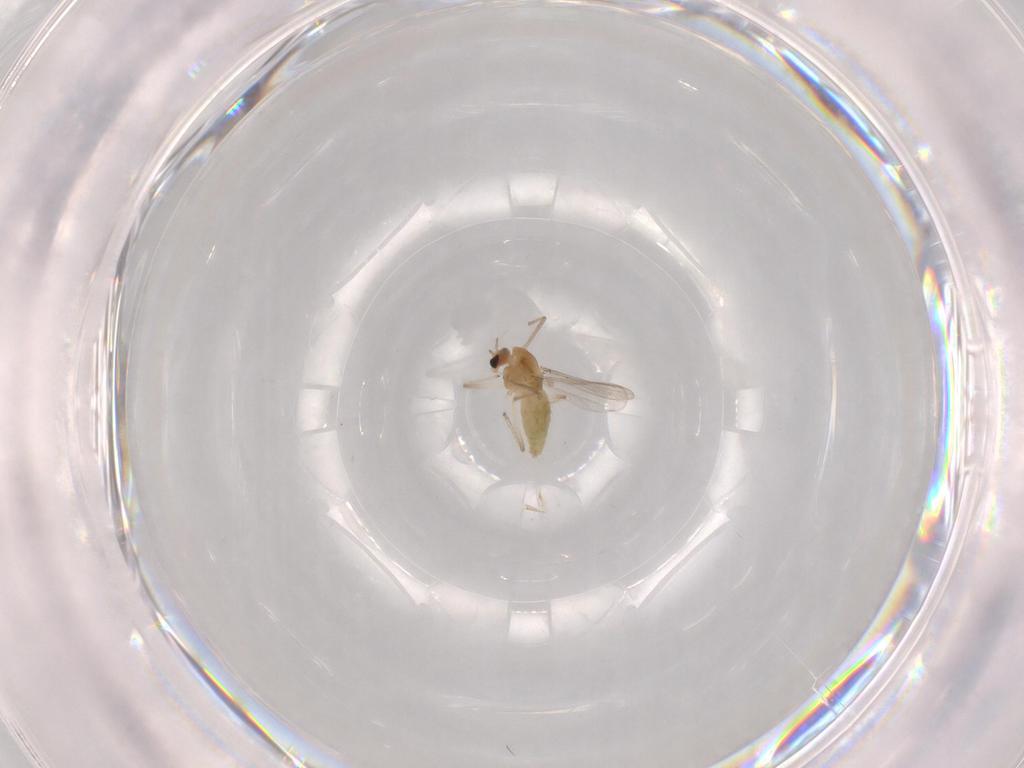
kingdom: Animalia
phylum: Arthropoda
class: Insecta
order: Diptera
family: Chironomidae
